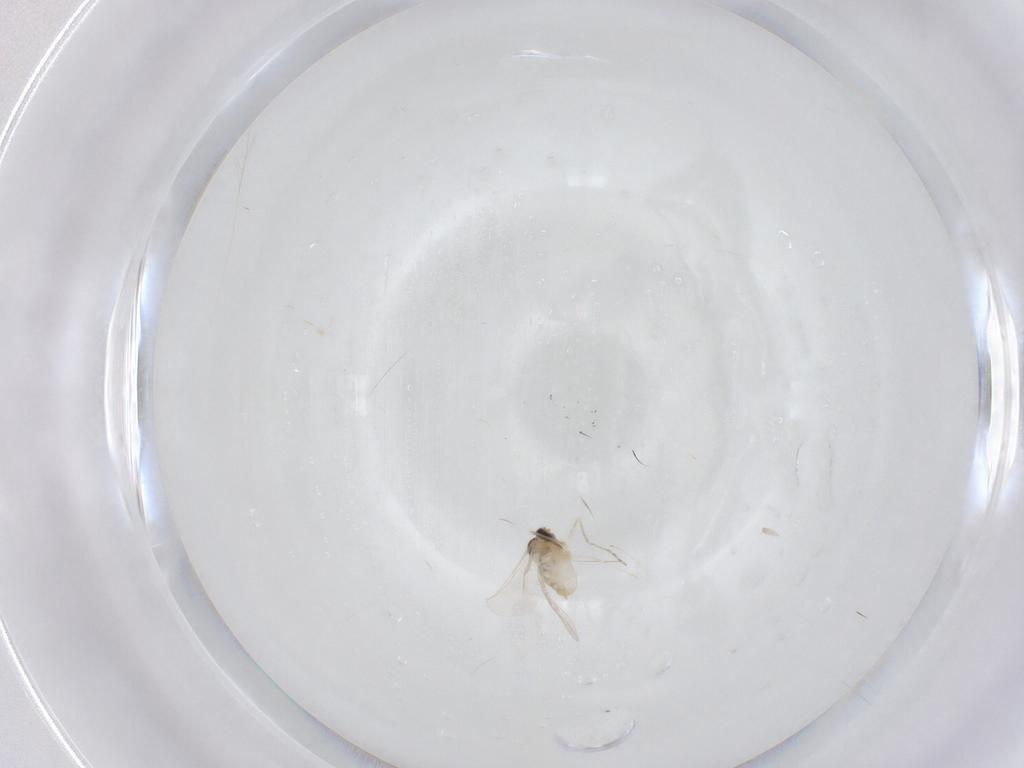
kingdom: Animalia
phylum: Arthropoda
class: Insecta
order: Diptera
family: Cecidomyiidae
